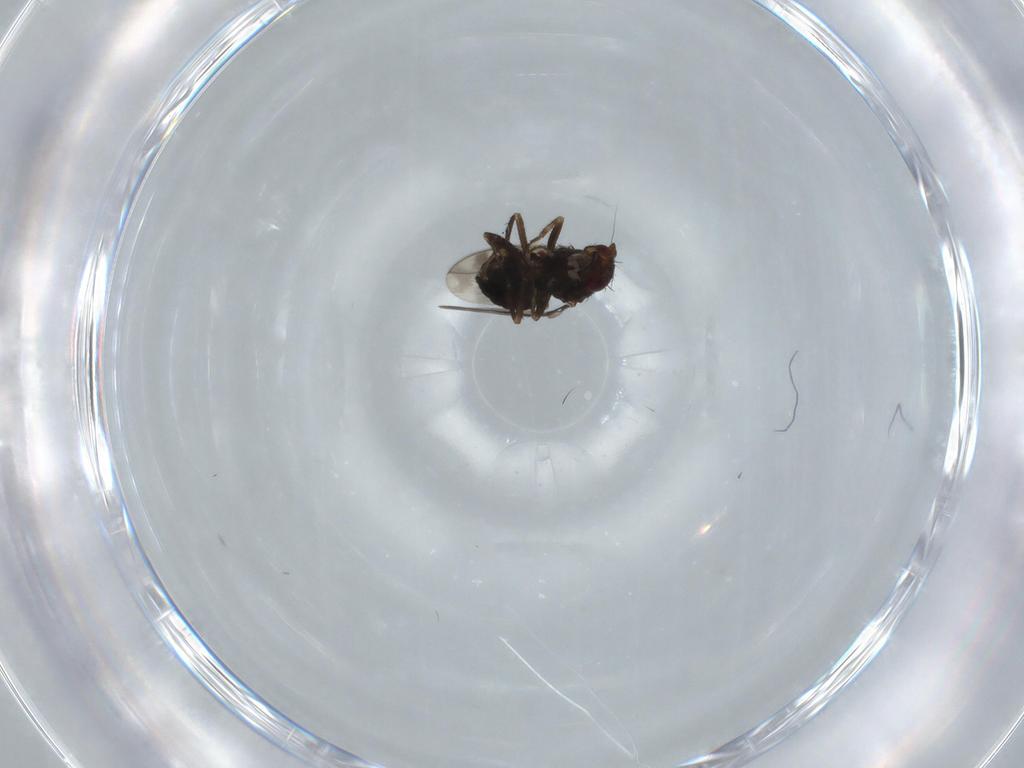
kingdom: Animalia
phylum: Arthropoda
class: Insecta
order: Diptera
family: Sphaeroceridae
